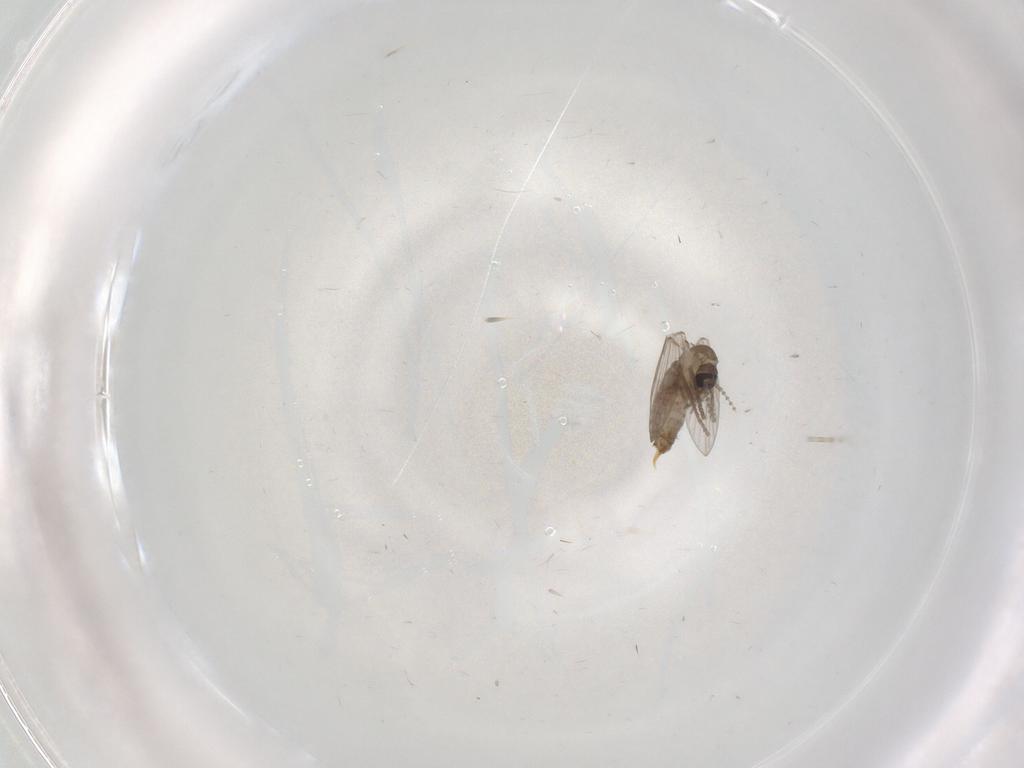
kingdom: Animalia
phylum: Arthropoda
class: Insecta
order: Diptera
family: Psychodidae
